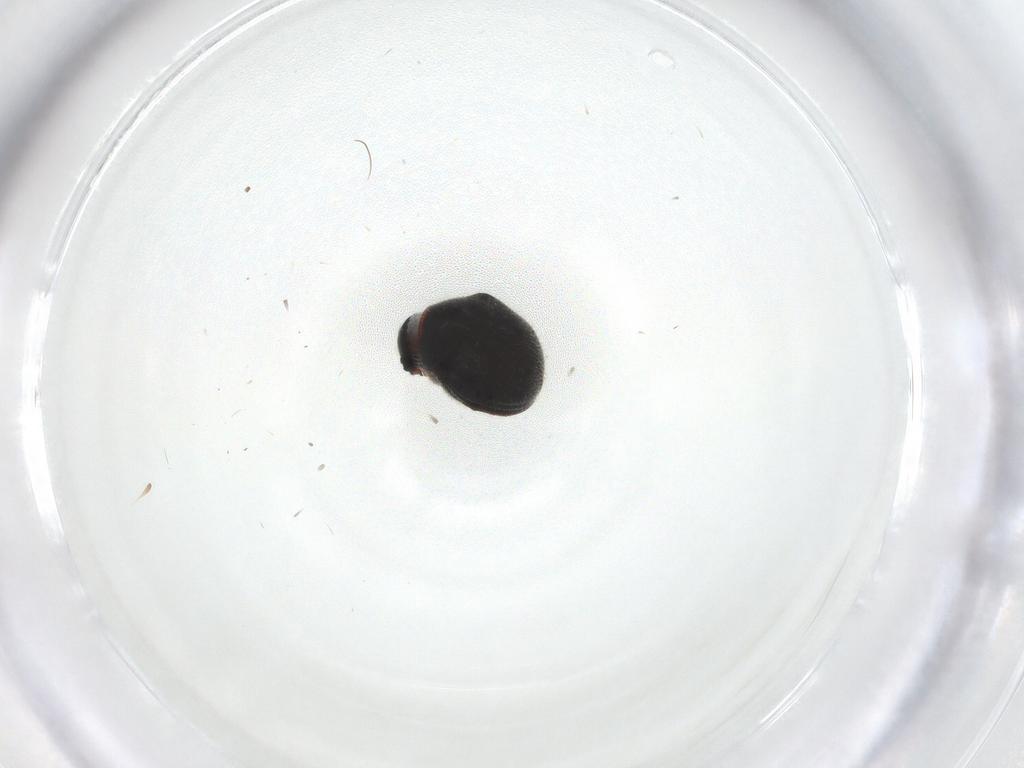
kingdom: Animalia
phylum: Arthropoda
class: Insecta
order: Coleoptera
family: Ptinidae
